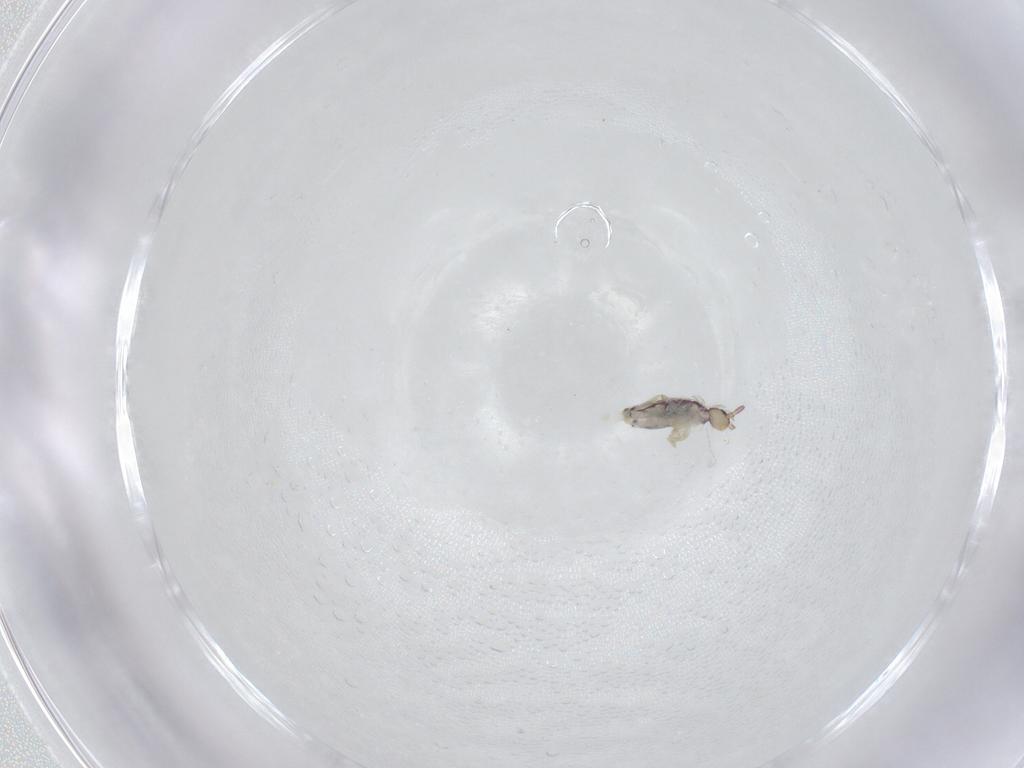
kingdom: Animalia
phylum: Arthropoda
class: Collembola
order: Entomobryomorpha
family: Entomobryidae
